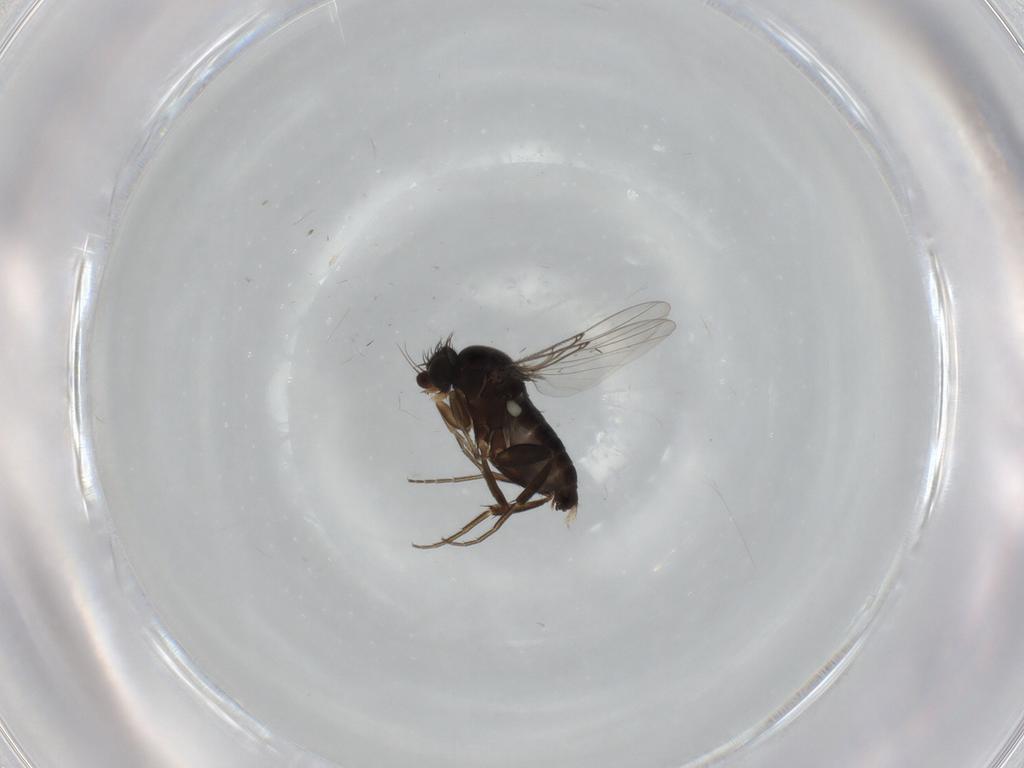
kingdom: Animalia
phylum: Arthropoda
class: Insecta
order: Diptera
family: Phoridae
